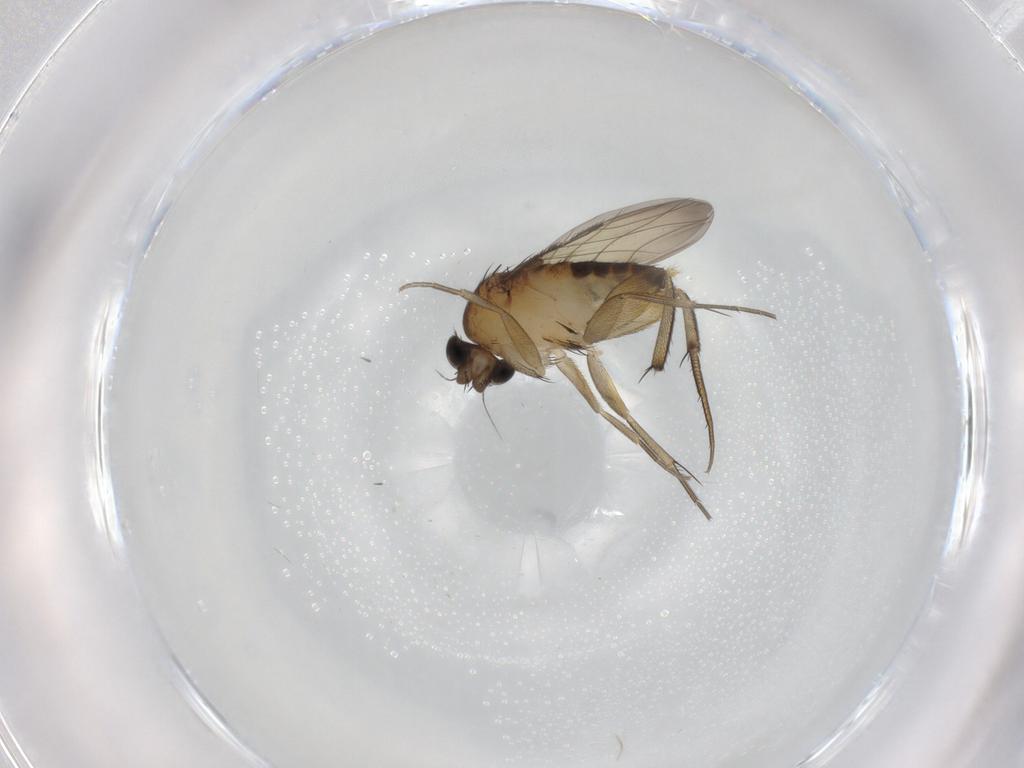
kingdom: Animalia
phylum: Arthropoda
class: Insecta
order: Diptera
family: Phoridae
